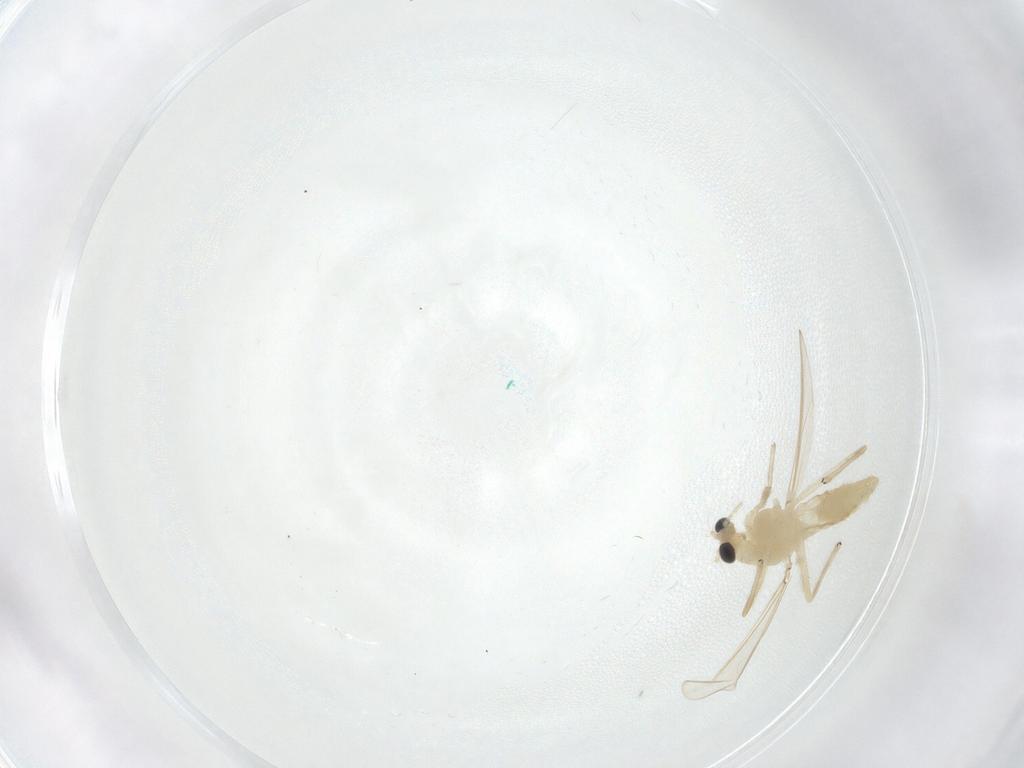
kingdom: Animalia
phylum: Arthropoda
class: Insecta
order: Diptera
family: Chironomidae
